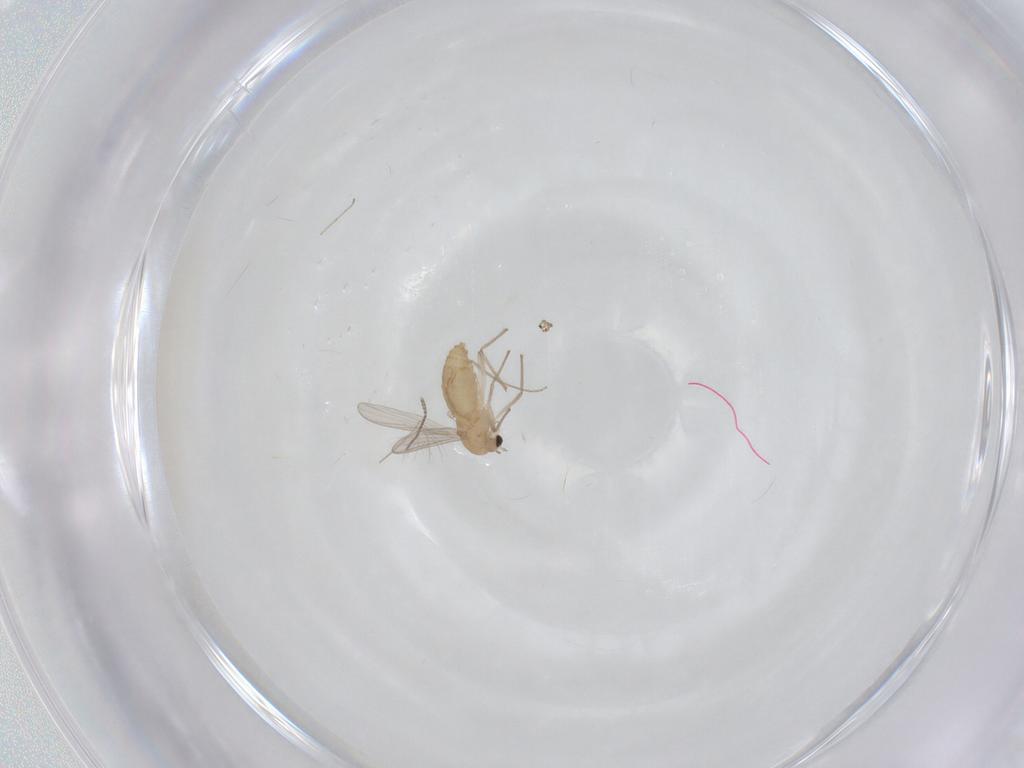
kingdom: Animalia
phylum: Arthropoda
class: Insecta
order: Diptera
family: Chironomidae
